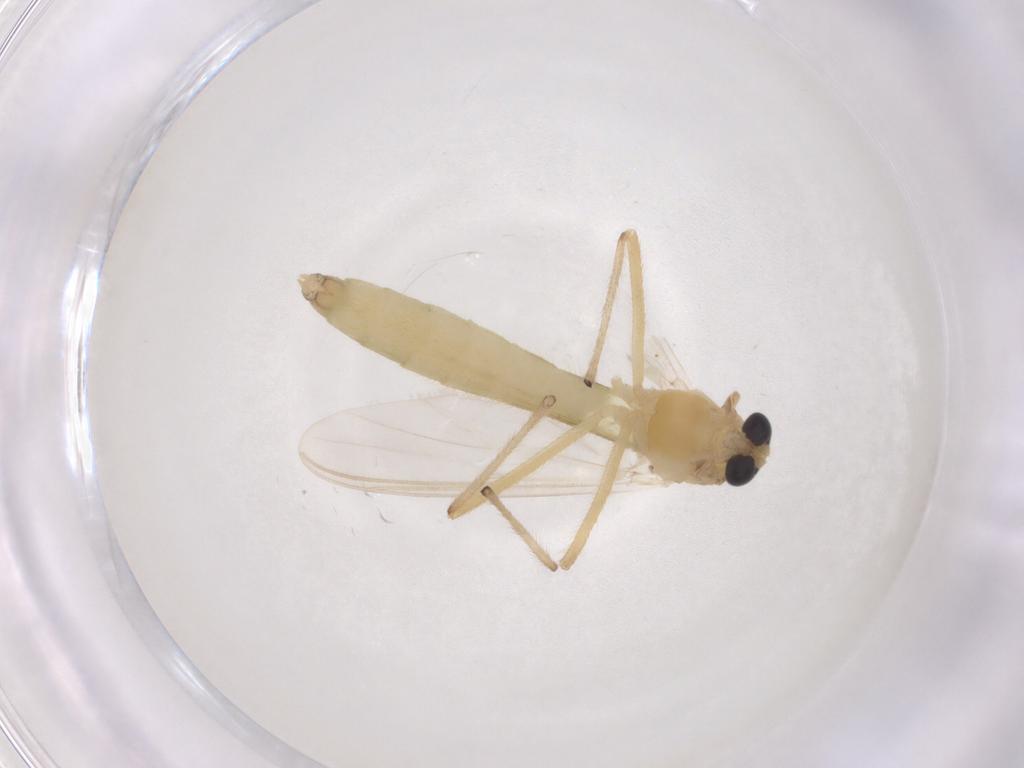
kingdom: Animalia
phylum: Arthropoda
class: Insecta
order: Diptera
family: Chironomidae
